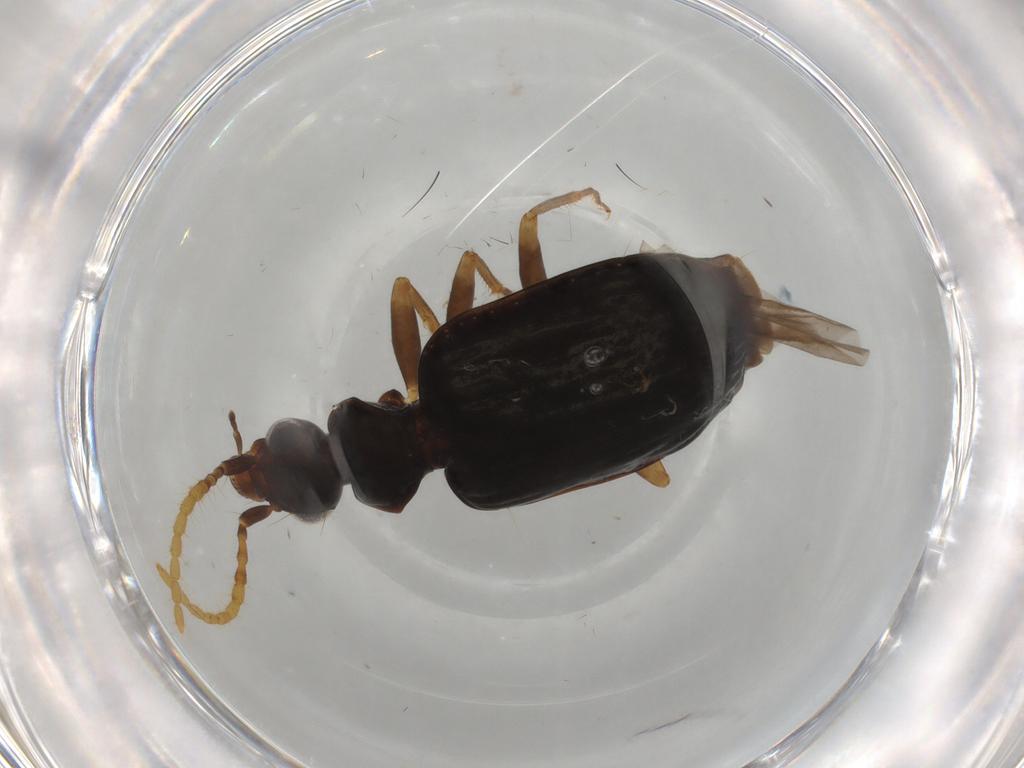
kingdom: Animalia
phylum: Arthropoda
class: Insecta
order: Coleoptera
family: Carabidae
